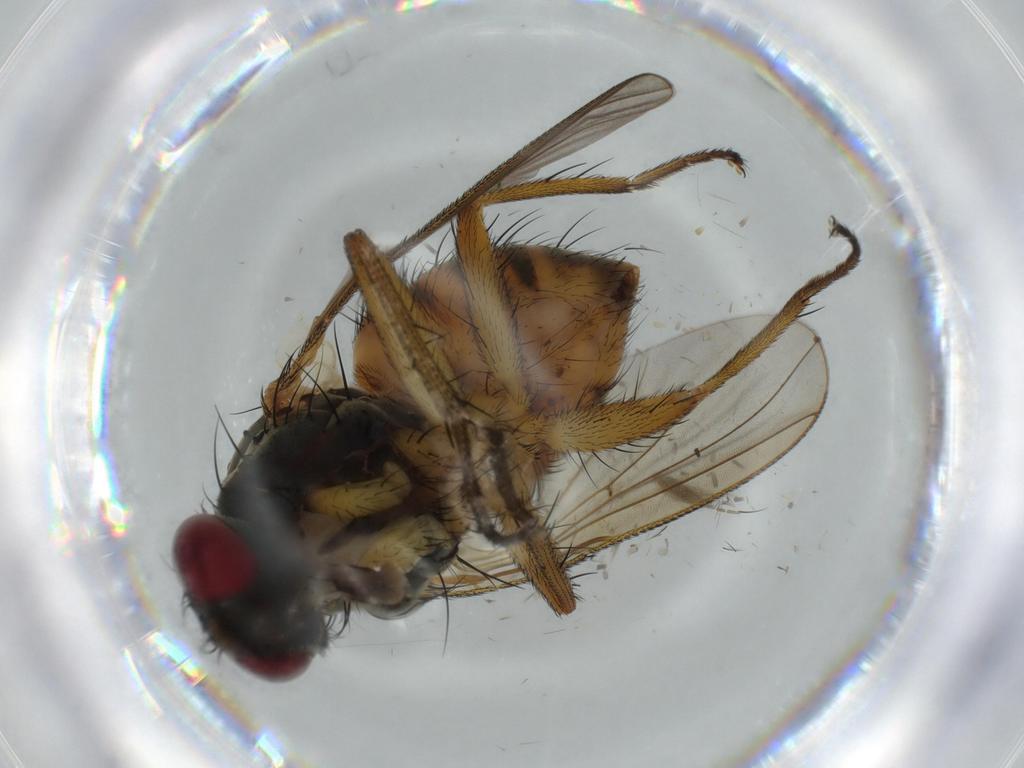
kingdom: Animalia
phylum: Arthropoda
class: Insecta
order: Diptera
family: Muscidae
